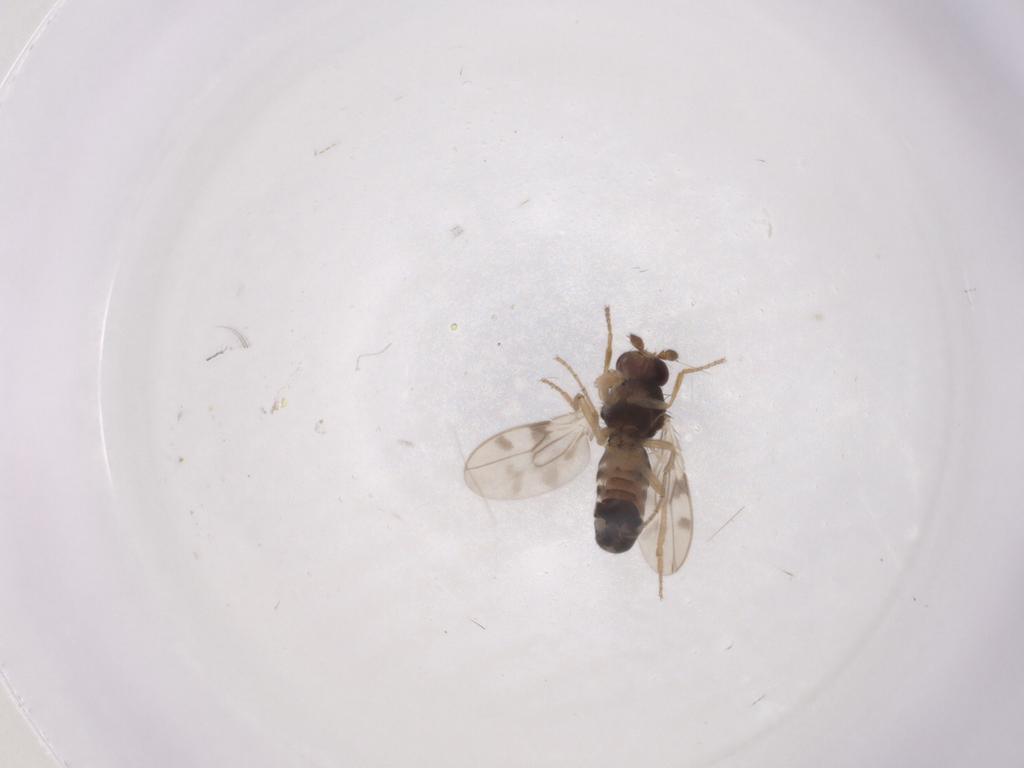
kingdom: Animalia
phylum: Arthropoda
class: Insecta
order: Diptera
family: Sphaeroceridae
